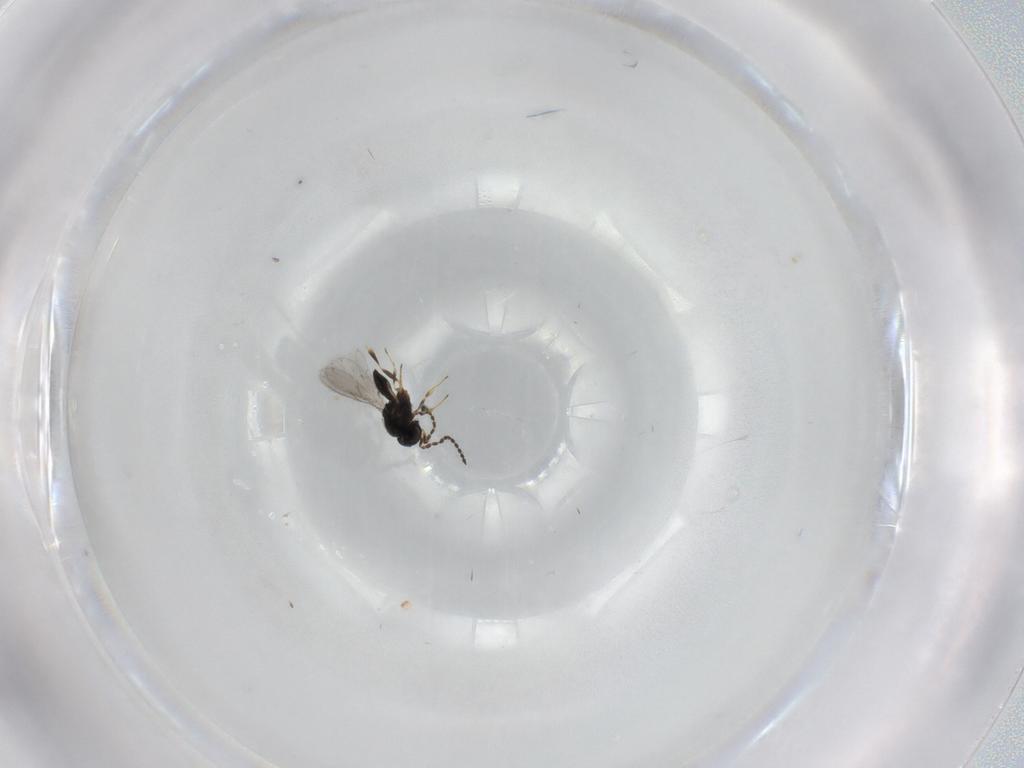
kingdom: Animalia
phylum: Arthropoda
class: Insecta
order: Hymenoptera
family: Scelionidae
